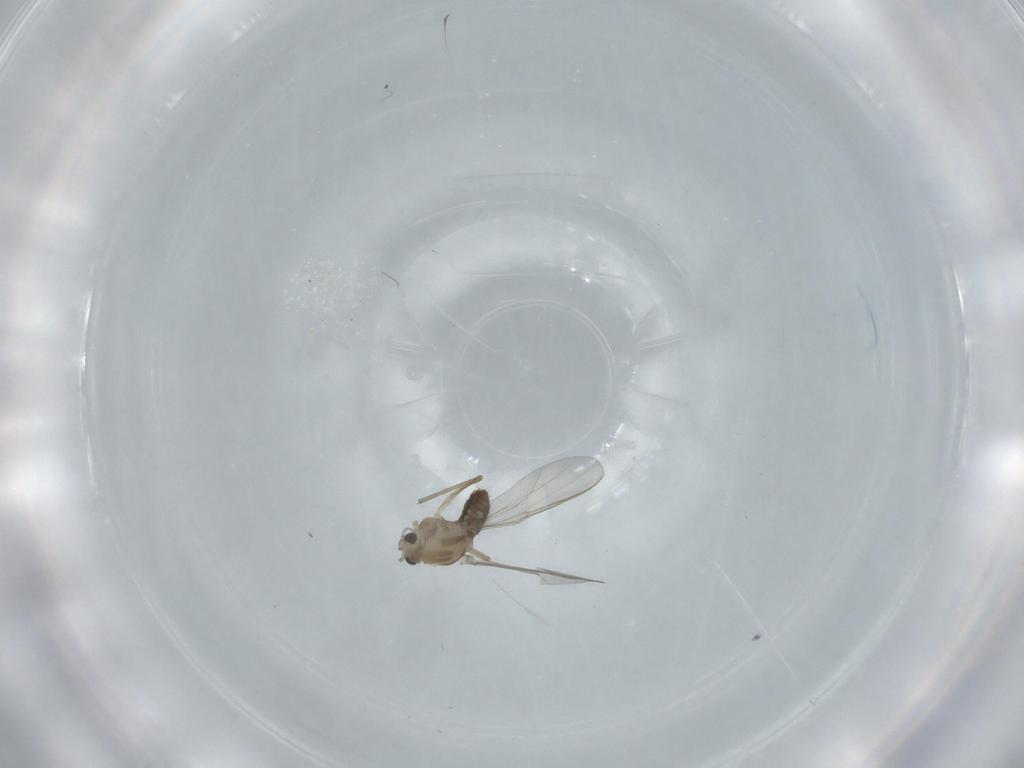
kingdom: Animalia
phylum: Arthropoda
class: Insecta
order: Diptera
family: Chironomidae
